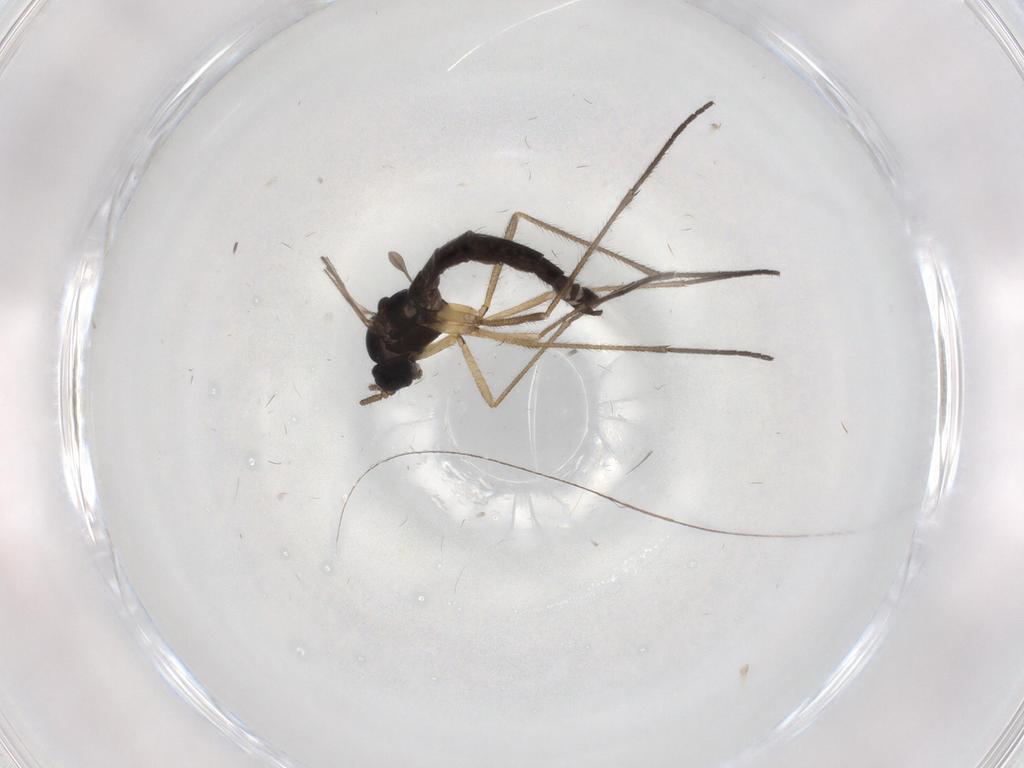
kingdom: Animalia
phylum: Arthropoda
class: Insecta
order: Diptera
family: Sciaridae
